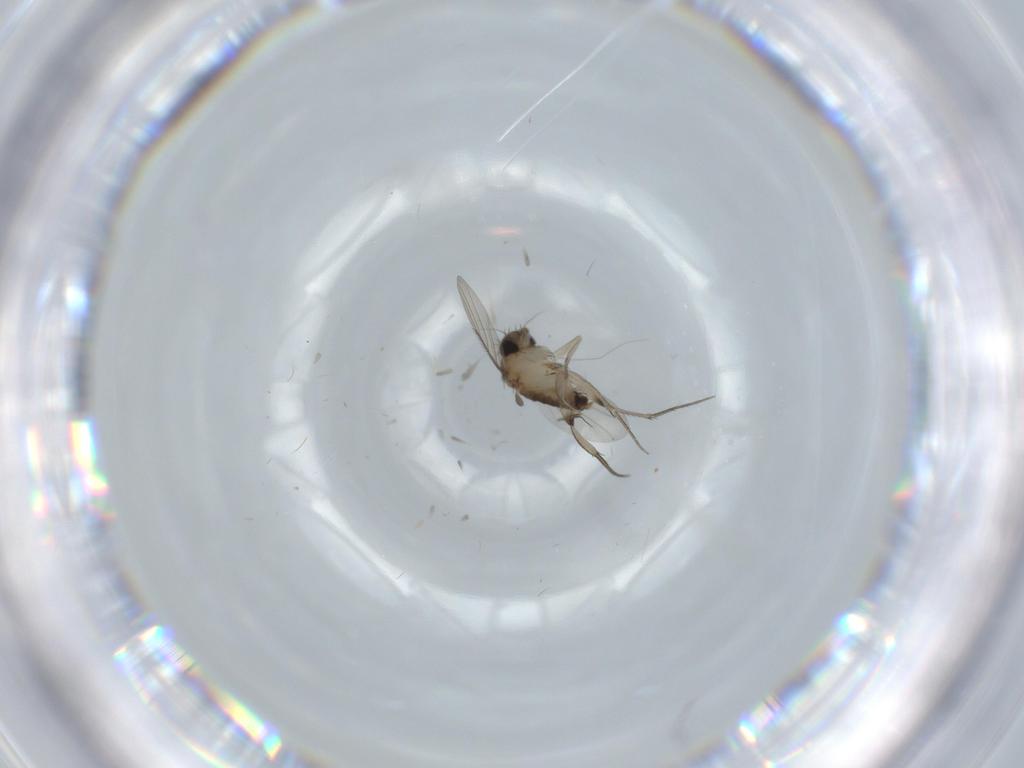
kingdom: Animalia
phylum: Arthropoda
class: Insecta
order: Diptera
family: Phoridae
